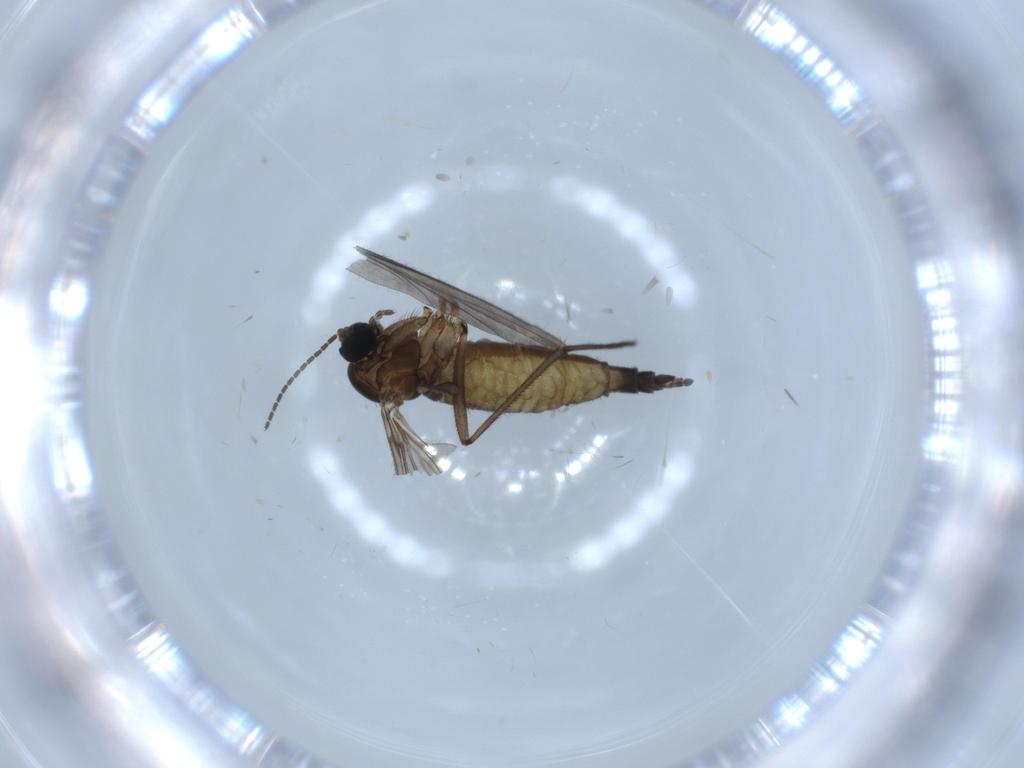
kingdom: Animalia
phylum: Arthropoda
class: Insecta
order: Diptera
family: Sciaridae
